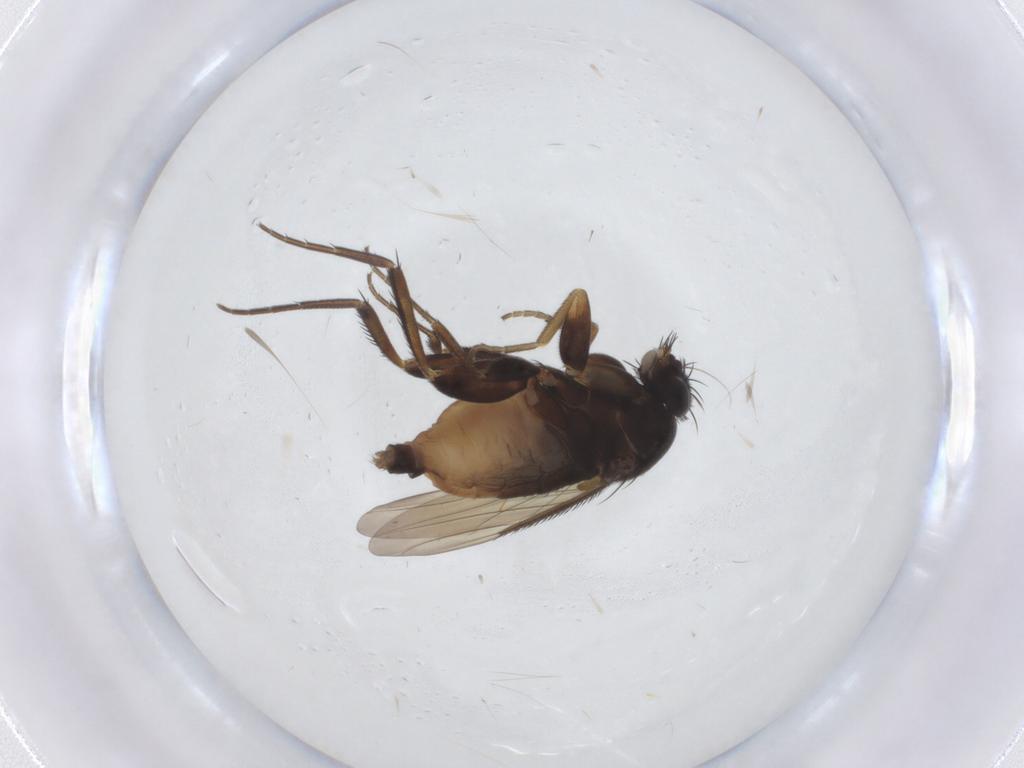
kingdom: Animalia
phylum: Arthropoda
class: Insecta
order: Diptera
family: Phoridae
